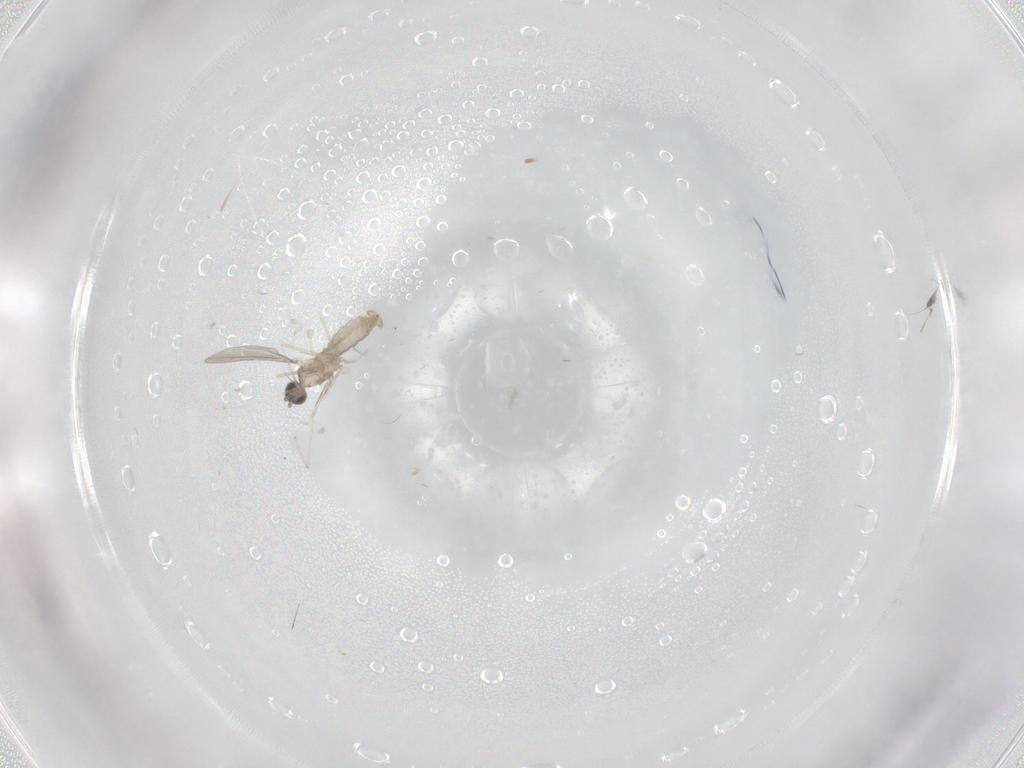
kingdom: Animalia
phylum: Arthropoda
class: Insecta
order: Diptera
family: Cecidomyiidae
